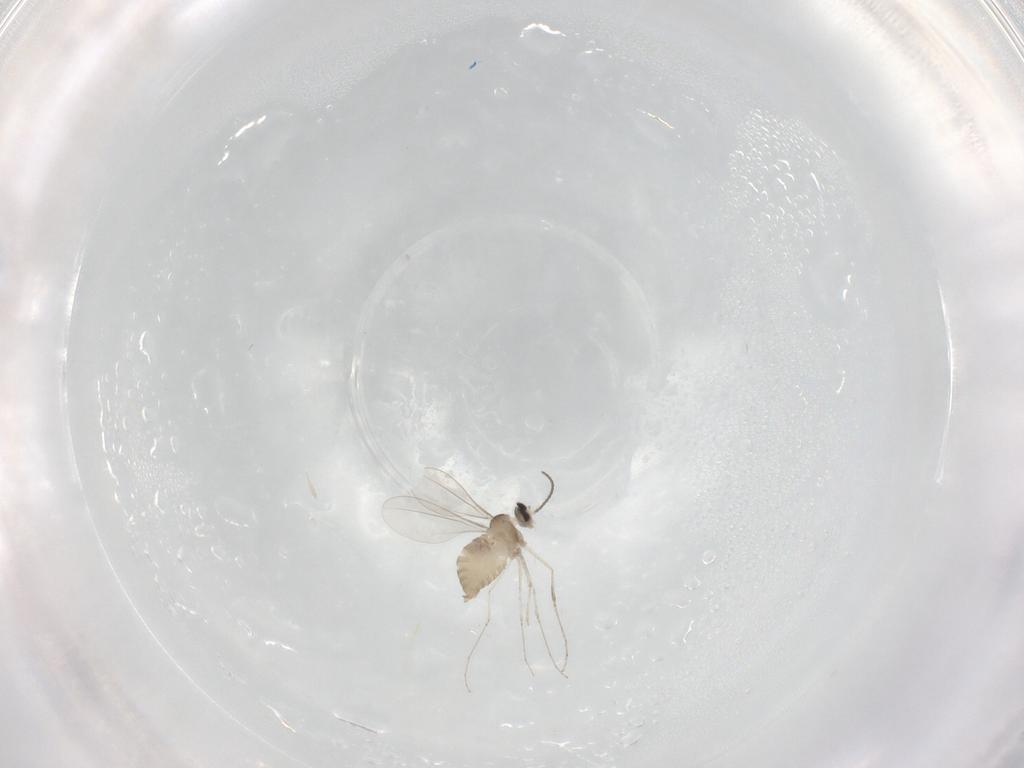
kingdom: Animalia
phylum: Arthropoda
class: Insecta
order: Diptera
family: Cecidomyiidae
